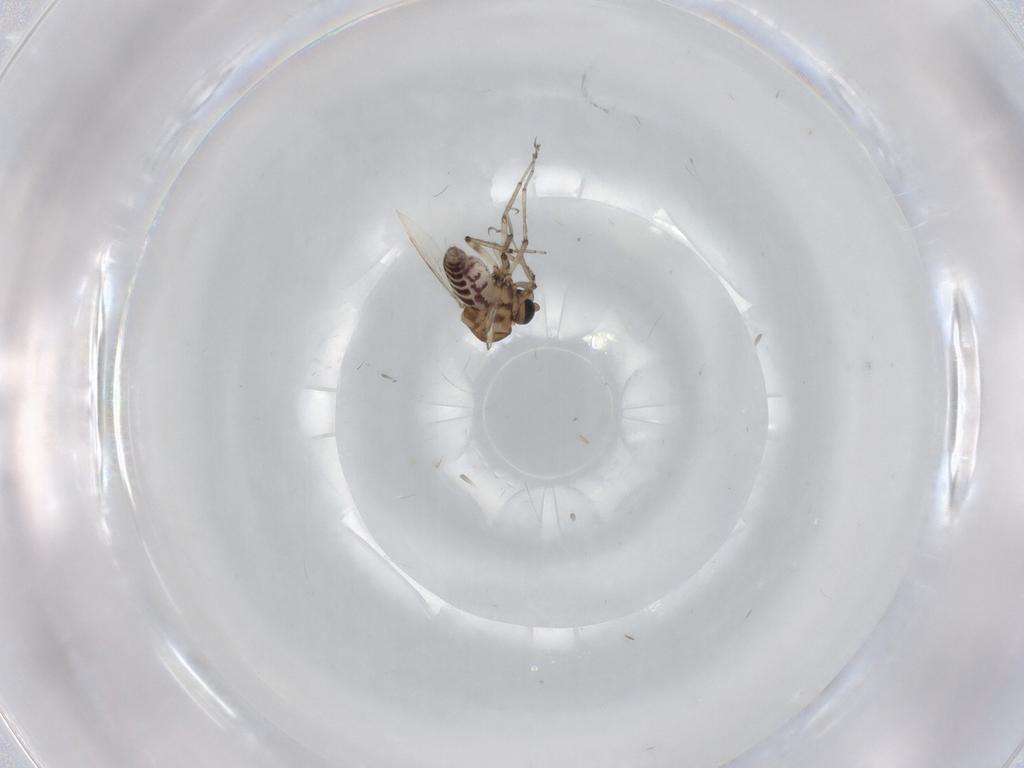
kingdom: Animalia
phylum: Arthropoda
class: Insecta
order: Diptera
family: Ceratopogonidae
